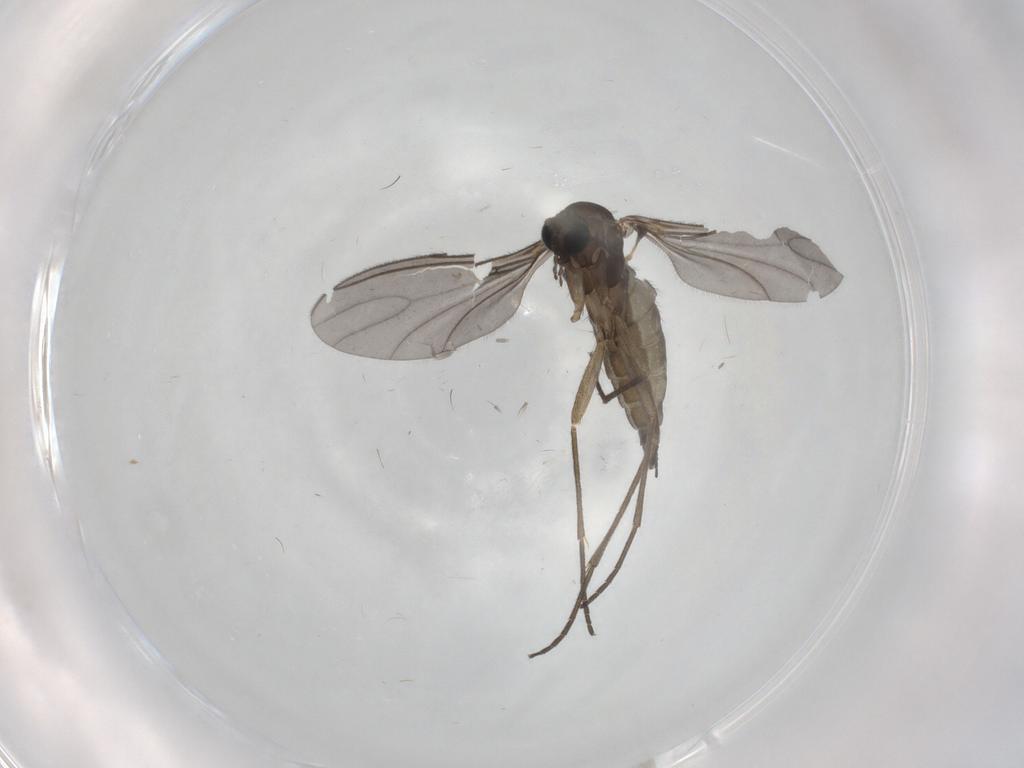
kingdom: Animalia
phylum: Arthropoda
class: Insecta
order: Diptera
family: Sciaridae
